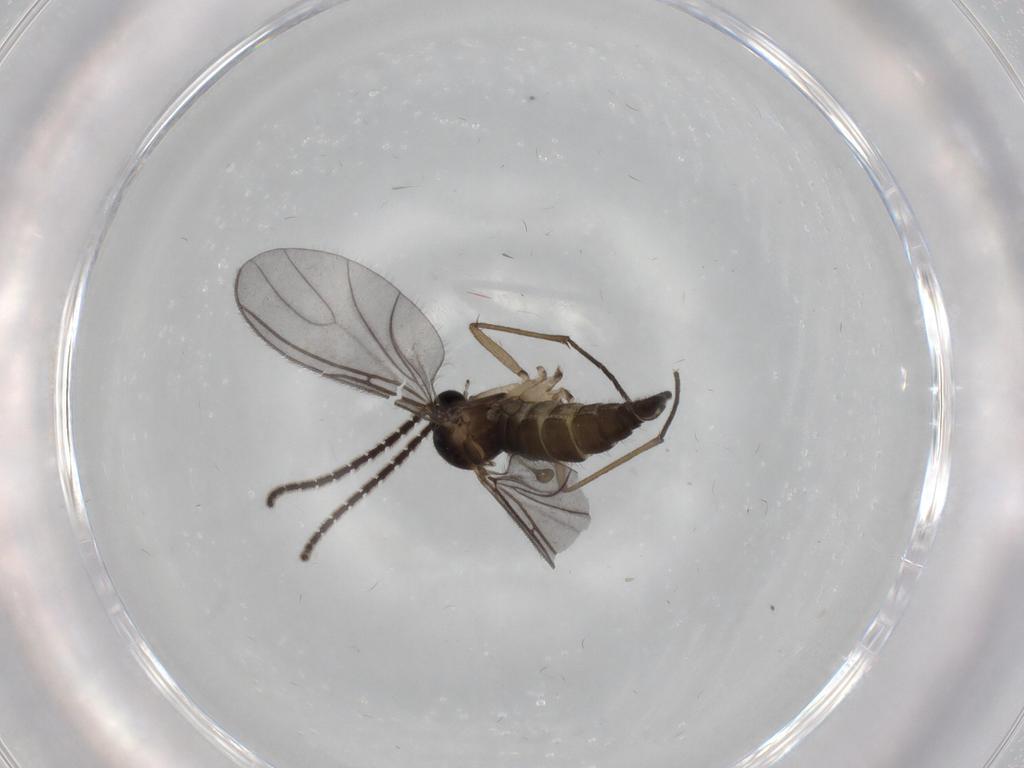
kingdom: Animalia
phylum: Arthropoda
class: Insecta
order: Diptera
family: Sciaridae
